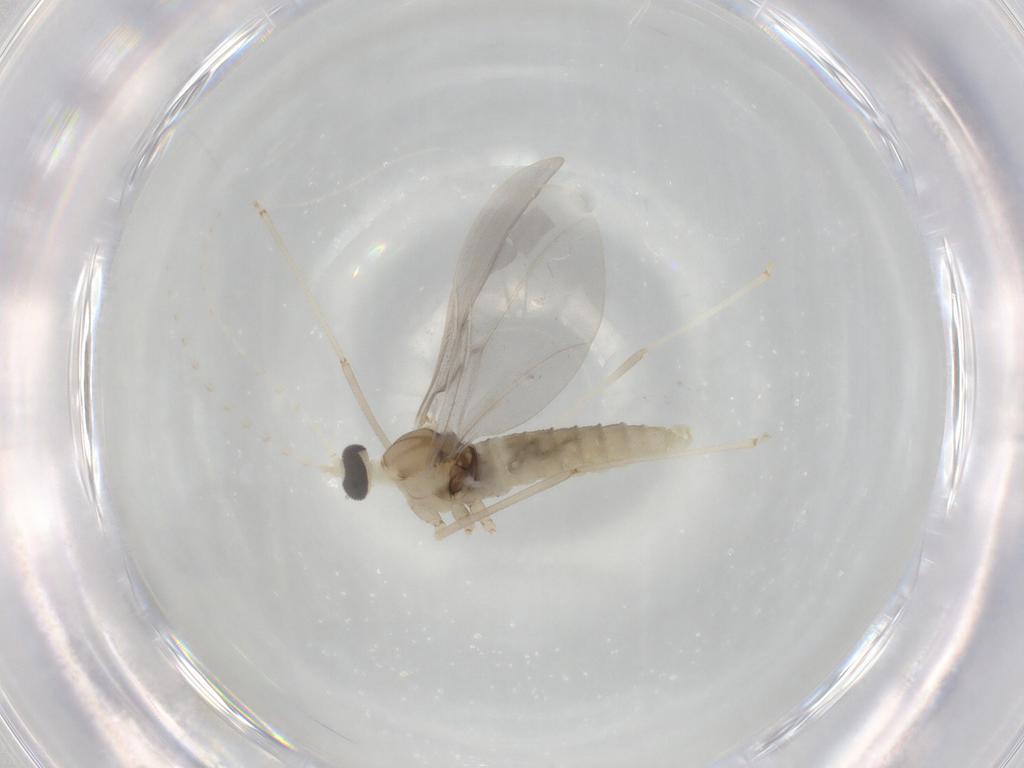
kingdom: Animalia
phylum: Arthropoda
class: Insecta
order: Diptera
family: Cecidomyiidae
